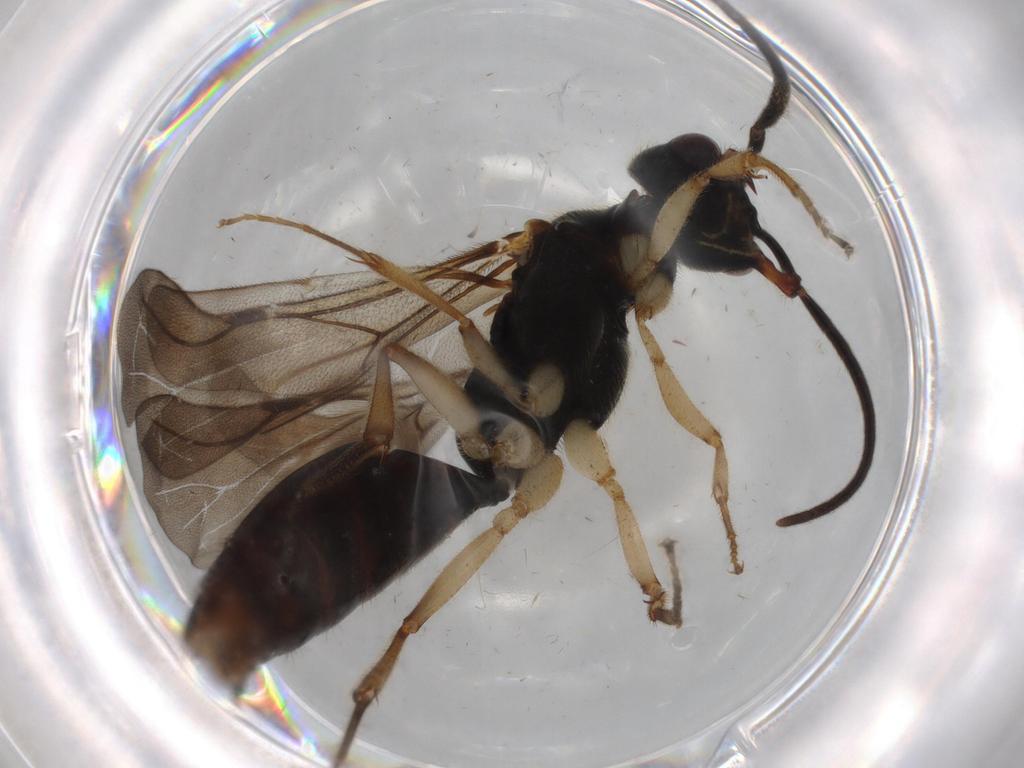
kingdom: Animalia
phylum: Arthropoda
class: Insecta
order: Hymenoptera
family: Bethylidae
